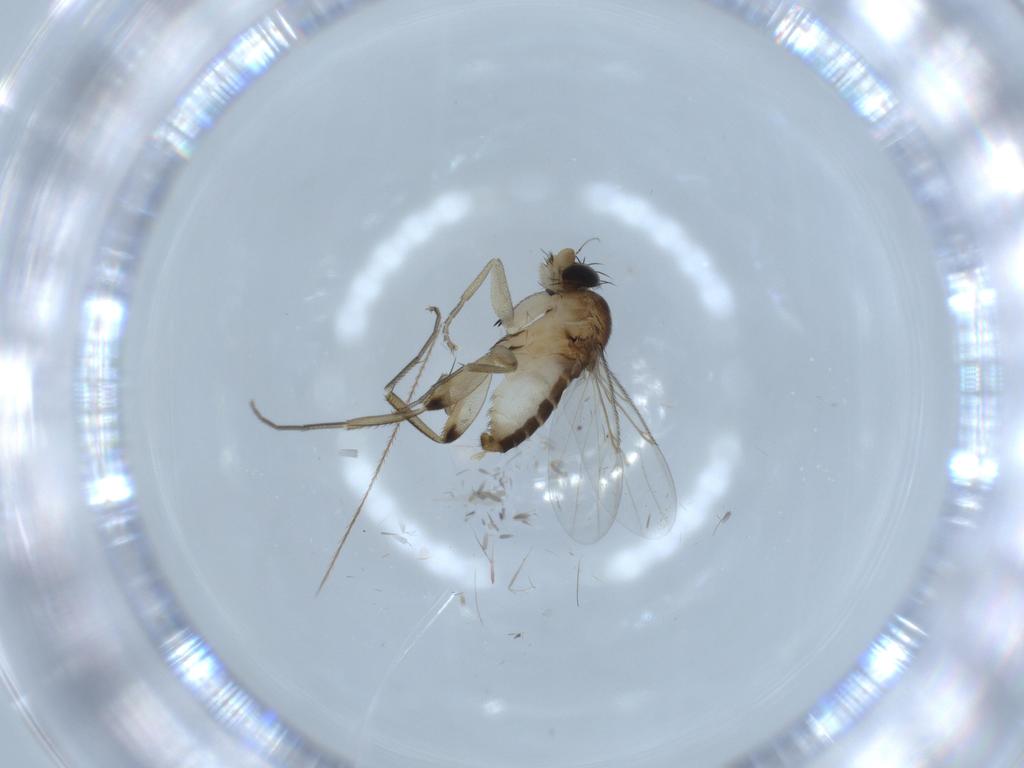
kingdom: Animalia
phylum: Arthropoda
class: Insecta
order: Diptera
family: Phoridae
